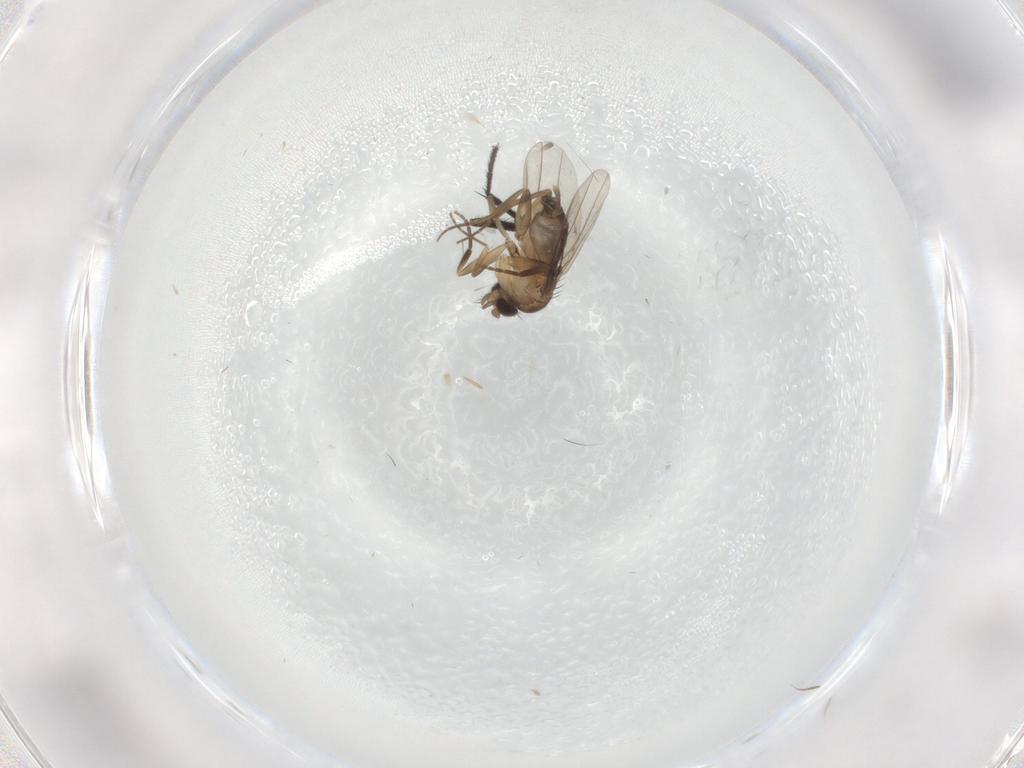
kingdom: Animalia
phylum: Arthropoda
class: Insecta
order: Diptera
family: Phoridae
